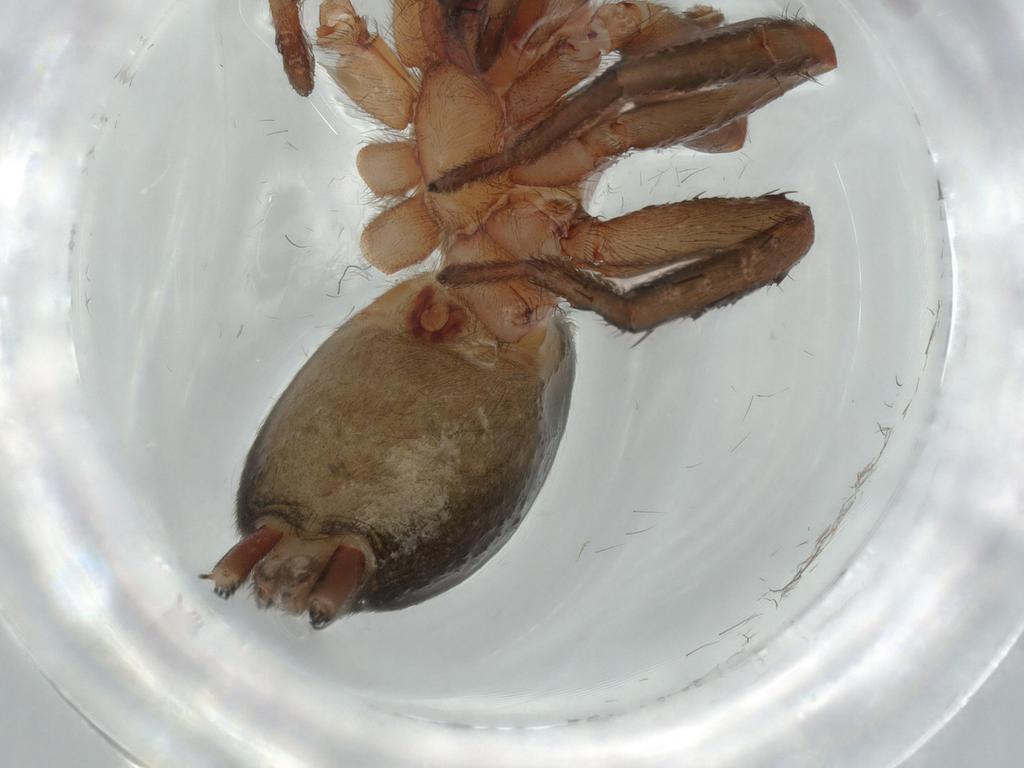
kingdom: Animalia
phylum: Arthropoda
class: Arachnida
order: Araneae
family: Gnaphosidae
